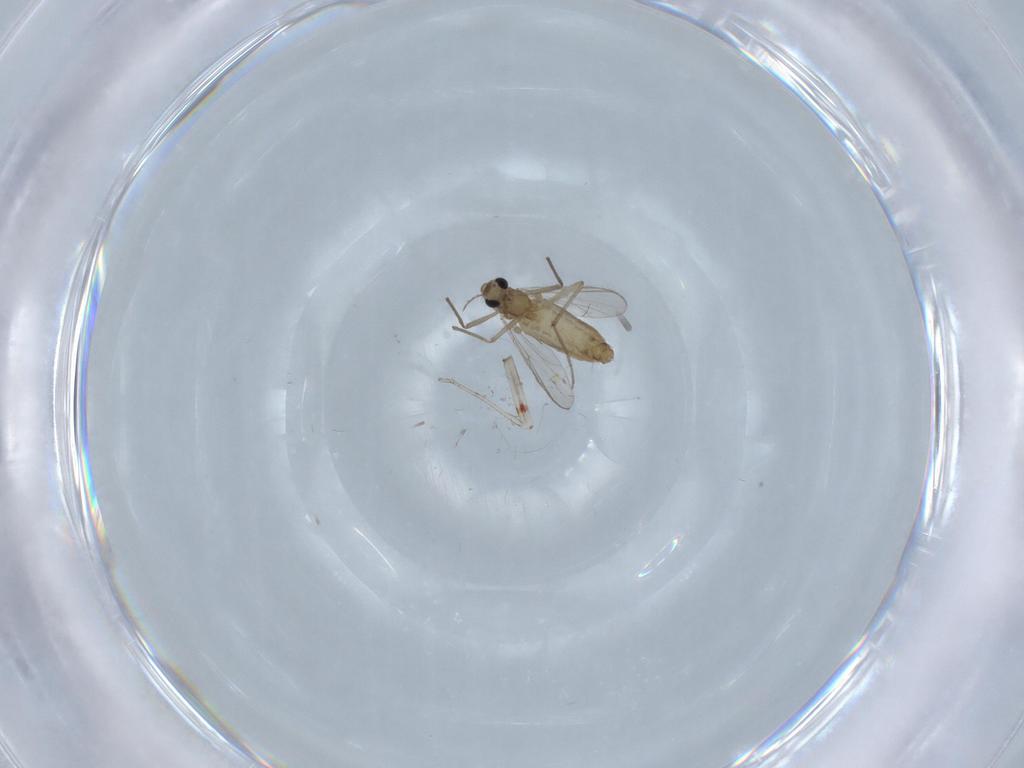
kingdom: Animalia
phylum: Arthropoda
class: Insecta
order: Diptera
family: Chironomidae
